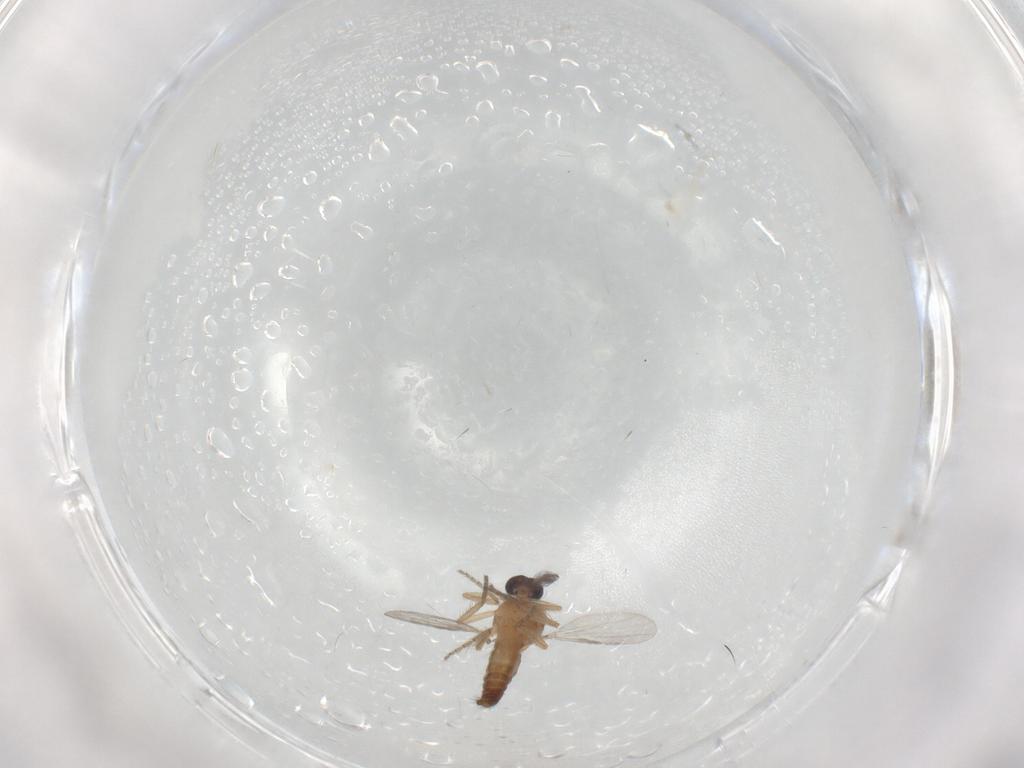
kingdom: Animalia
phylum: Arthropoda
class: Insecta
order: Diptera
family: Ceratopogonidae
